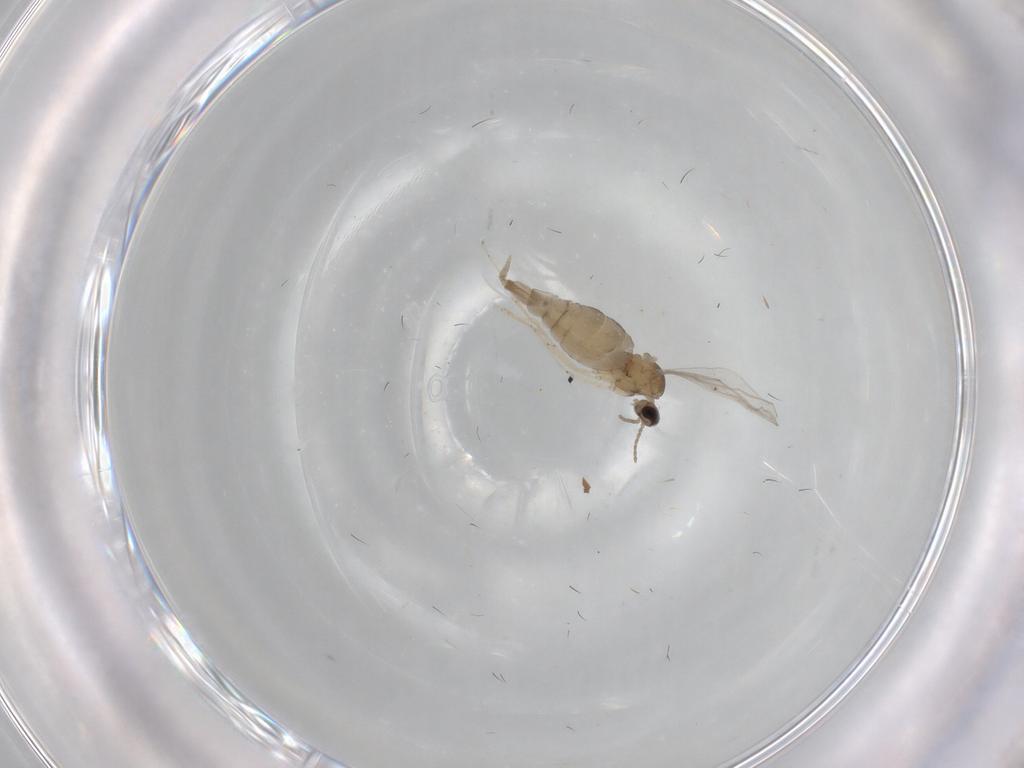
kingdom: Animalia
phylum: Arthropoda
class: Insecta
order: Diptera
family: Cecidomyiidae
